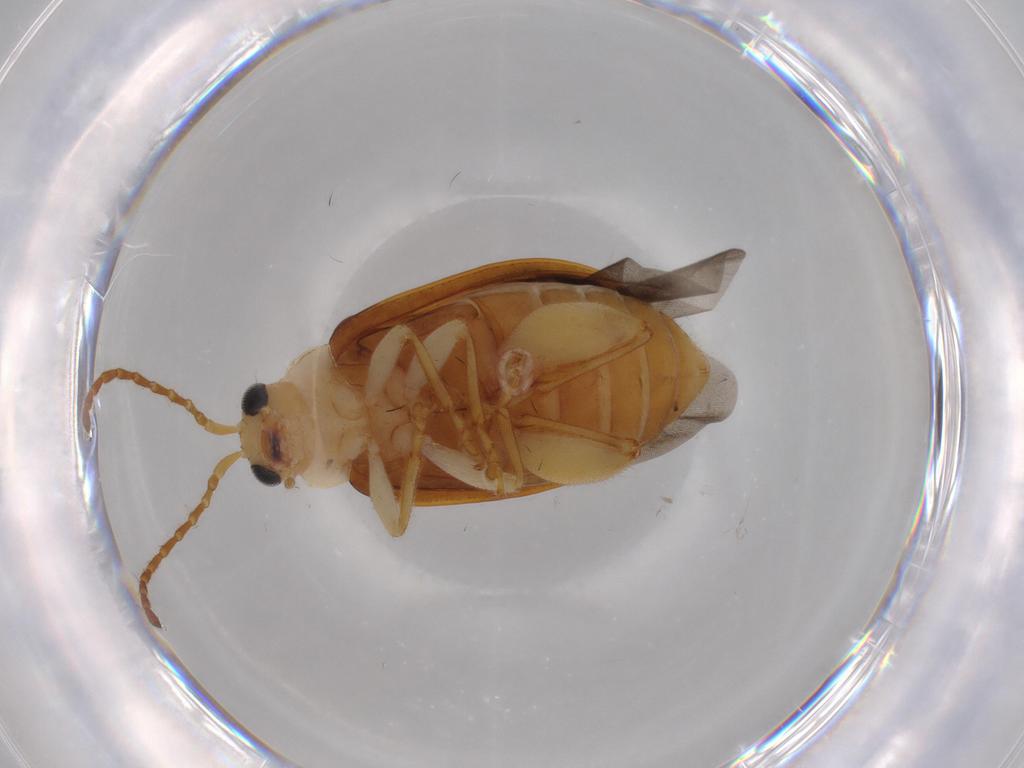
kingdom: Animalia
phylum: Arthropoda
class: Insecta
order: Coleoptera
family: Chrysomelidae
